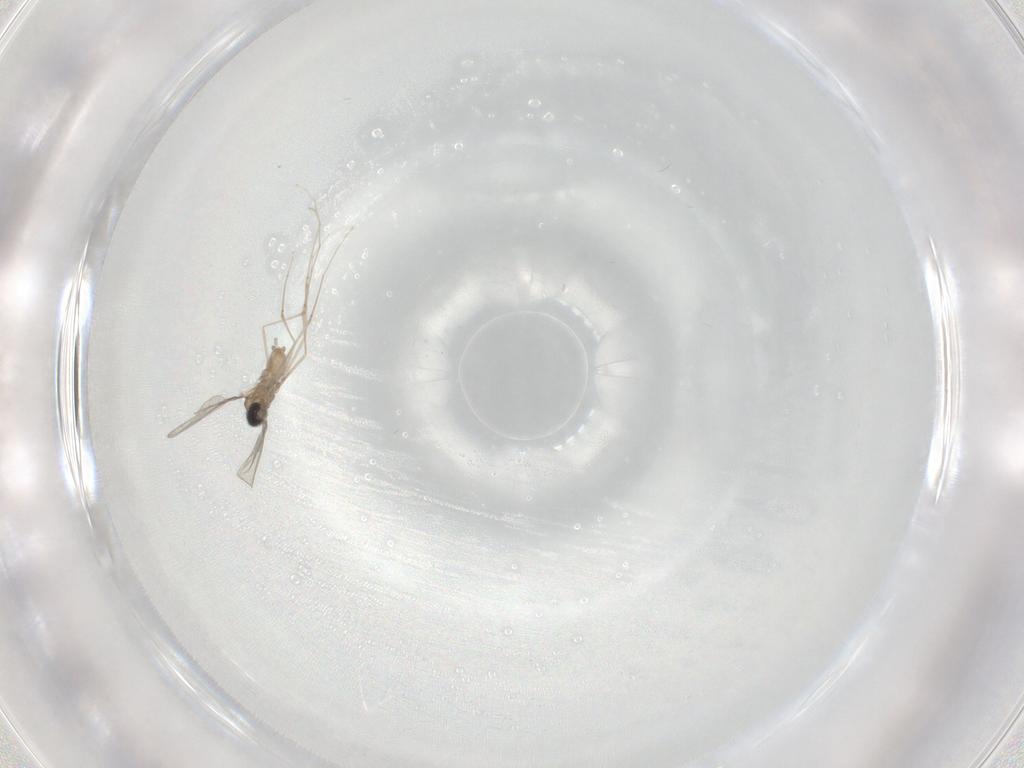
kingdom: Animalia
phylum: Arthropoda
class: Insecta
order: Diptera
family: Cecidomyiidae
